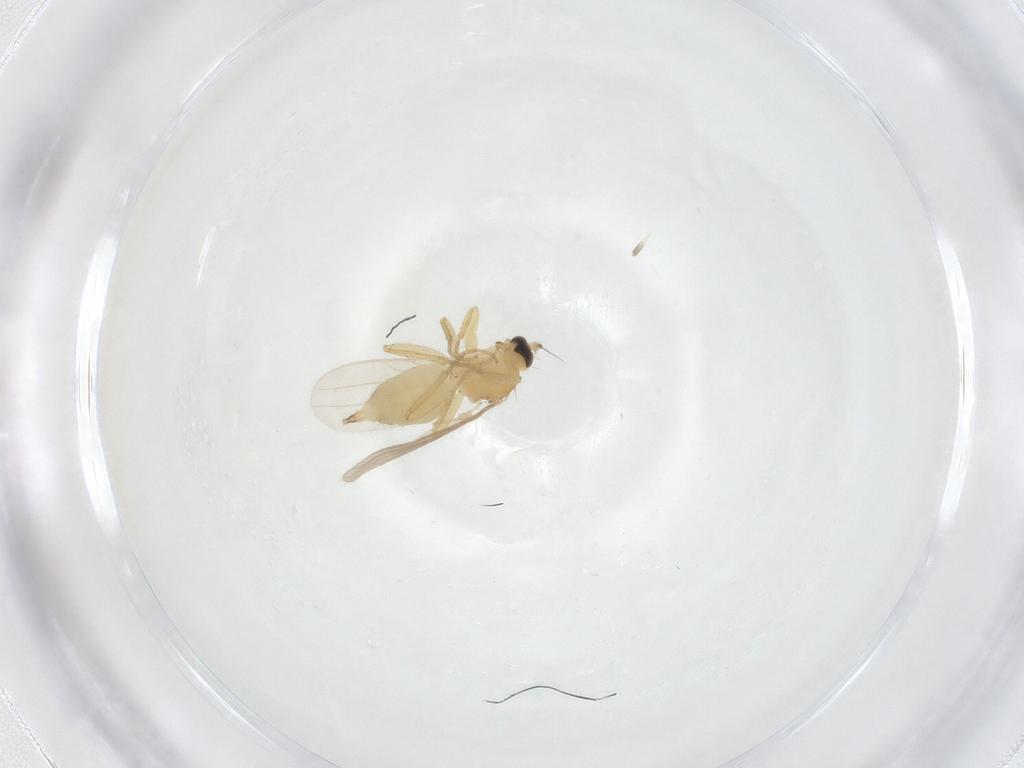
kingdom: Animalia
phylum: Arthropoda
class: Insecta
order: Diptera
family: Hybotidae
